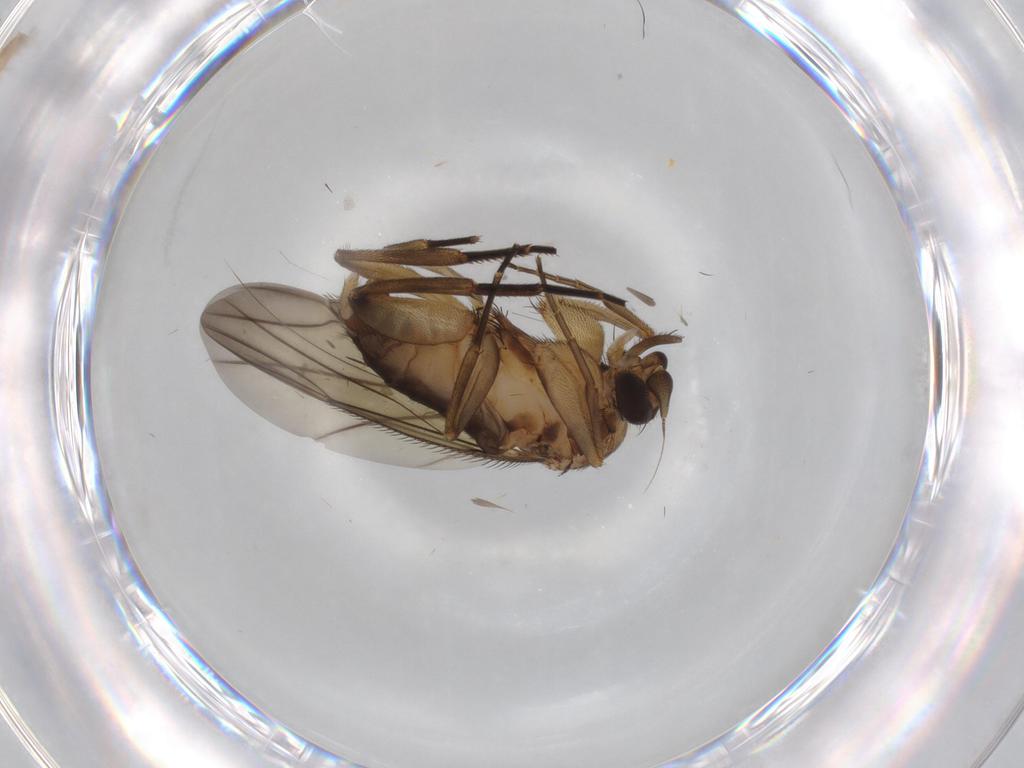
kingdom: Animalia
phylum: Arthropoda
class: Insecta
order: Diptera
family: Phoridae
